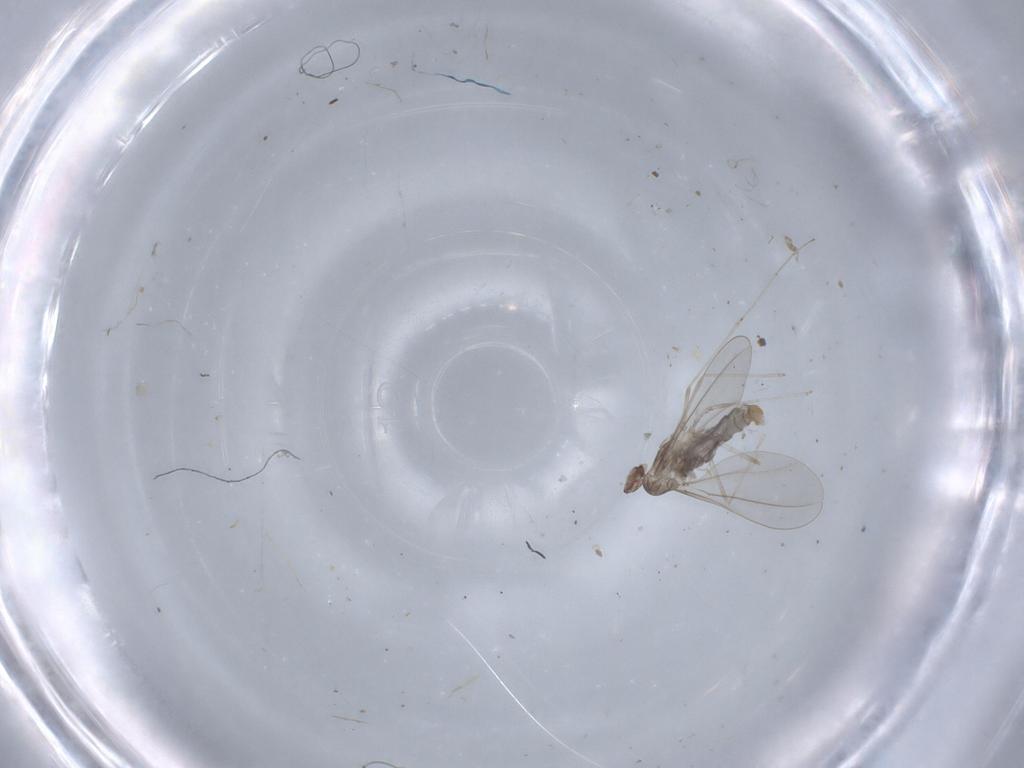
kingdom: Animalia
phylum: Arthropoda
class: Insecta
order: Diptera
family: Cecidomyiidae
